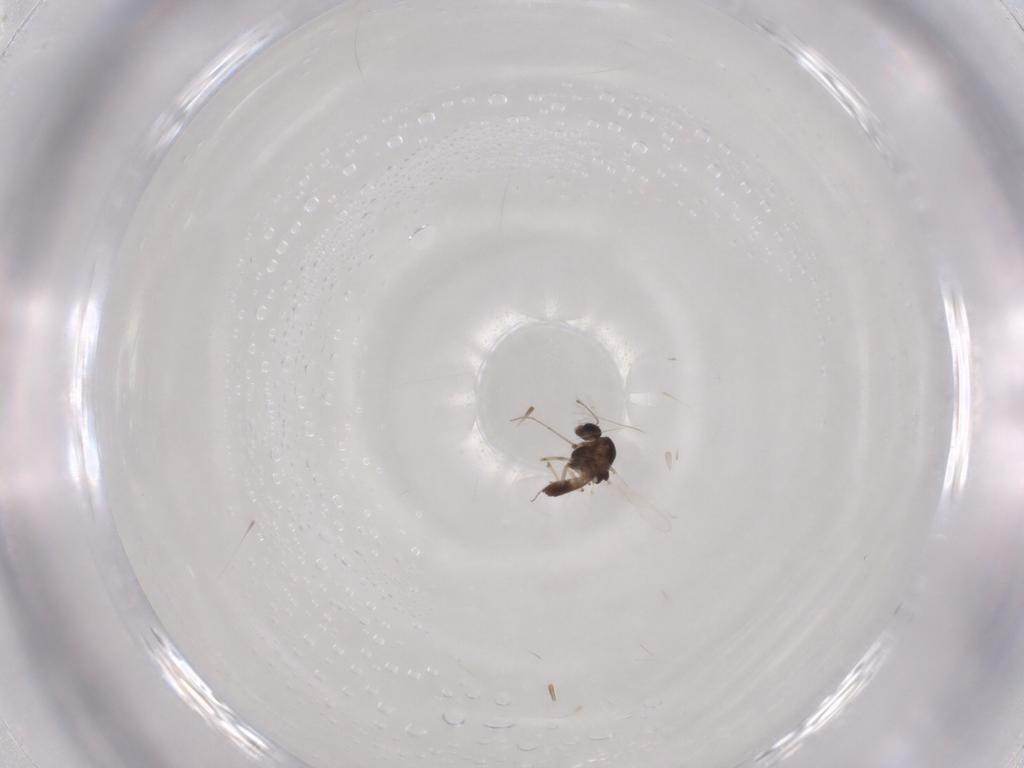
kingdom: Animalia
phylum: Arthropoda
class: Insecta
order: Diptera
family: Chironomidae
